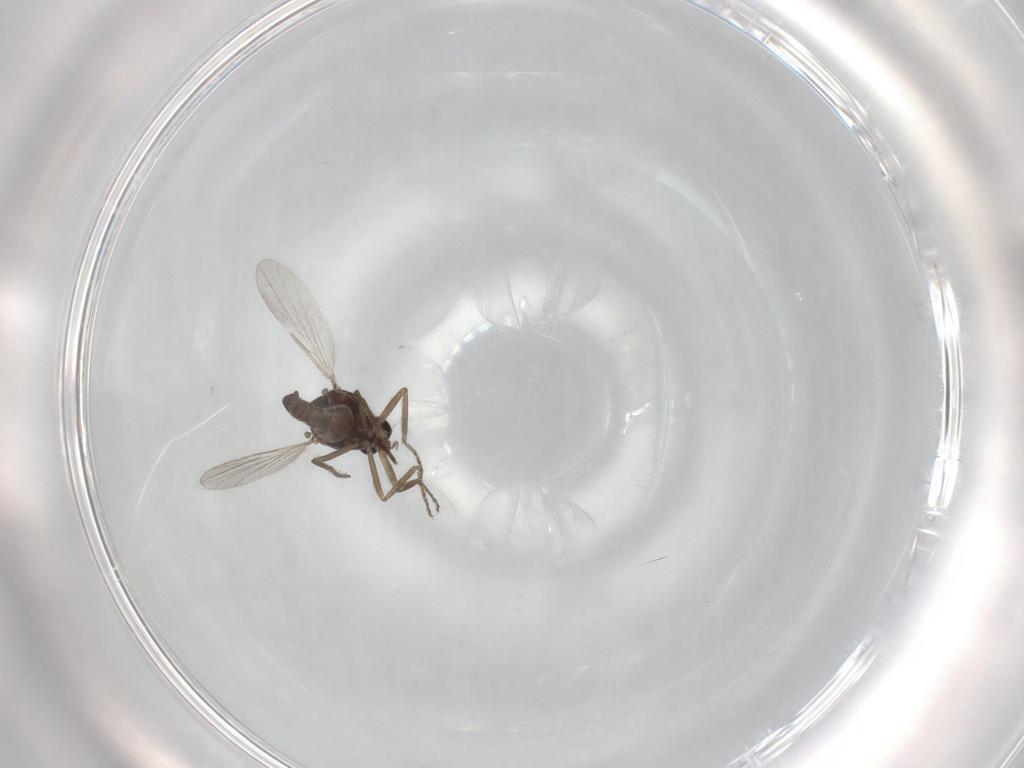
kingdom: Animalia
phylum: Arthropoda
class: Insecta
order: Diptera
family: Ceratopogonidae
